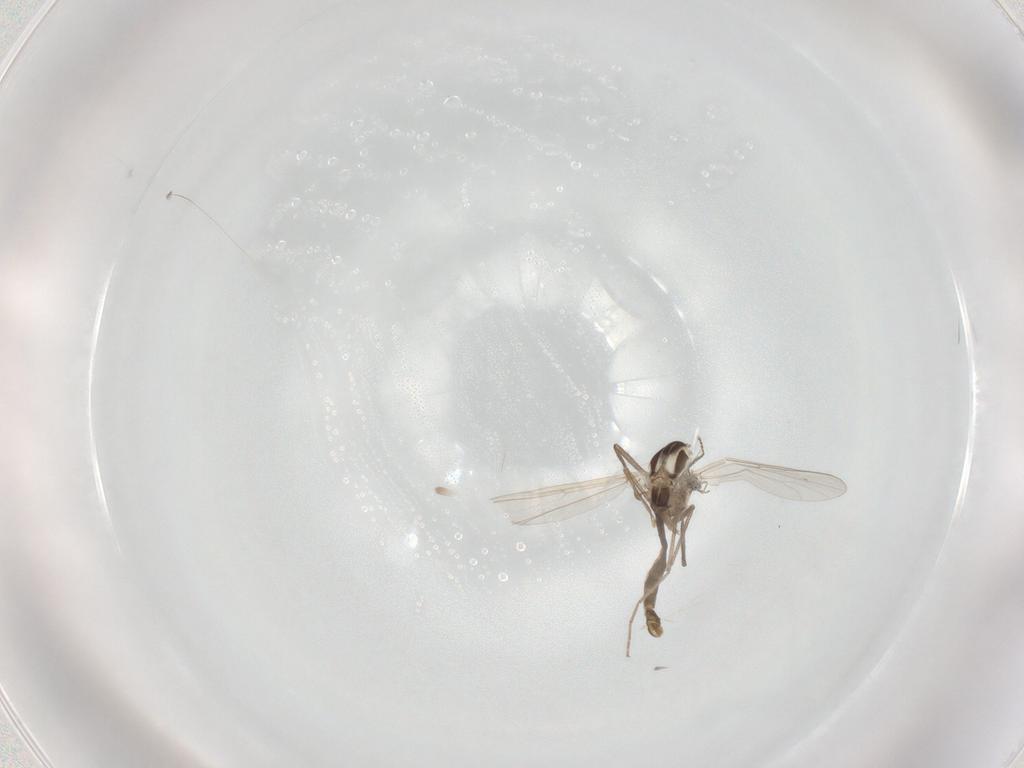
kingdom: Animalia
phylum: Arthropoda
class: Insecta
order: Diptera
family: Chironomidae
